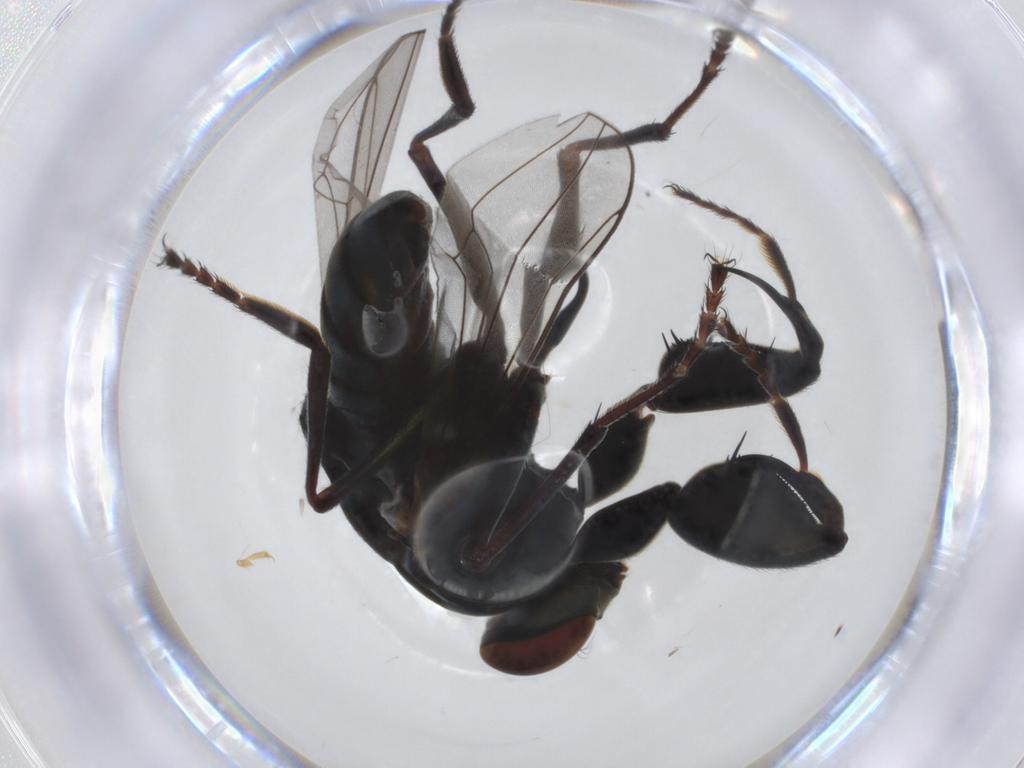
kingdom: Animalia
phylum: Arthropoda
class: Insecta
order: Diptera
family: Ephydridae
